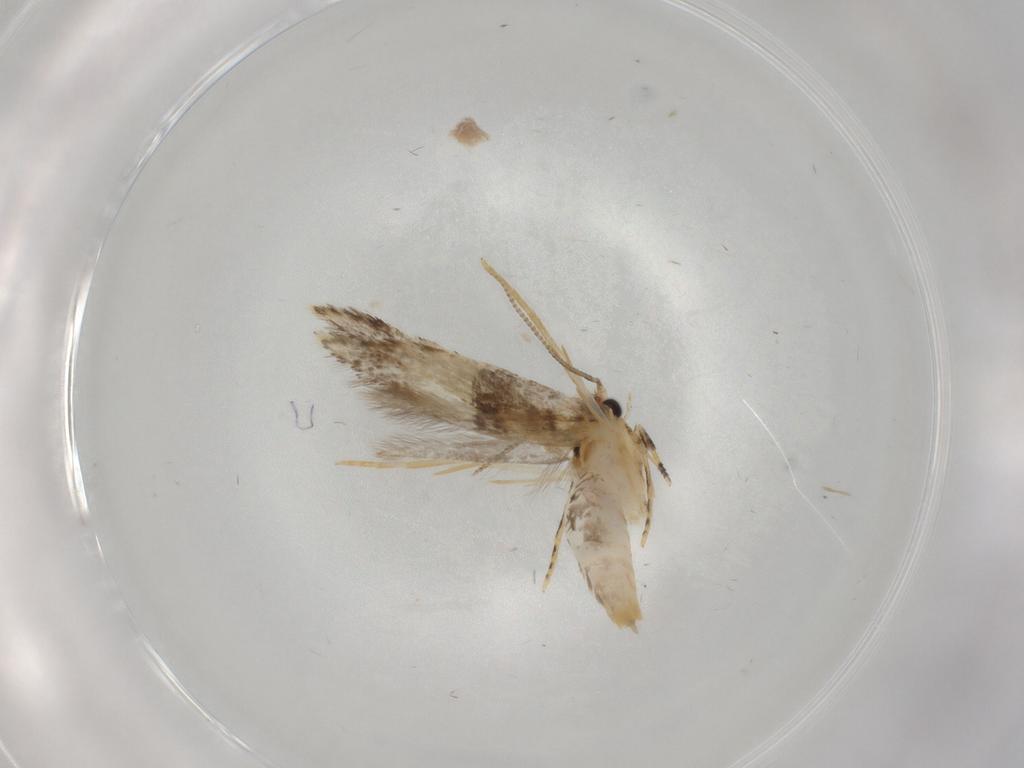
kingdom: Animalia
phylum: Arthropoda
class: Insecta
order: Lepidoptera
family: Tineidae
